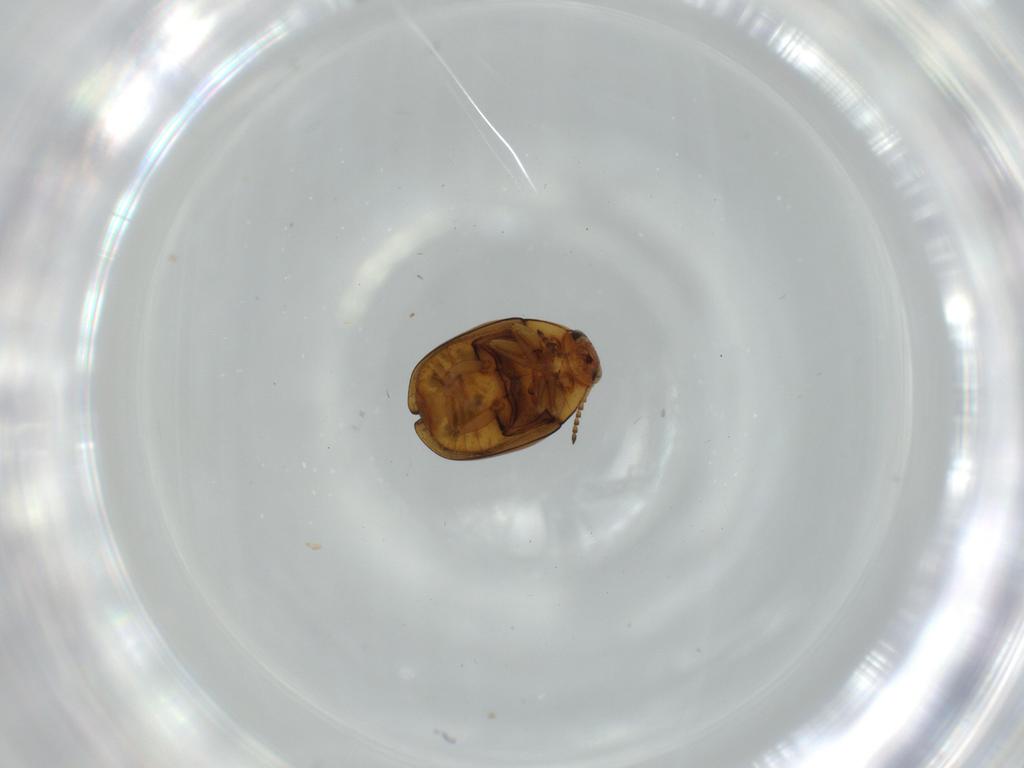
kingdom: Animalia
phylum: Arthropoda
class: Insecta
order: Coleoptera
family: Chrysomelidae
